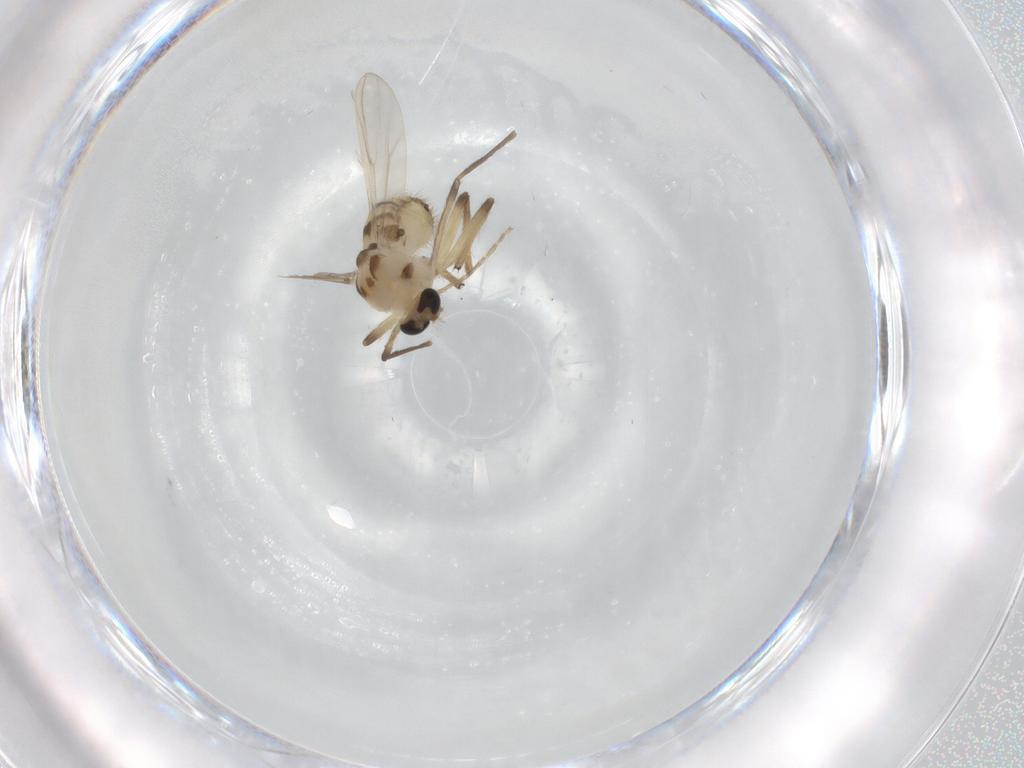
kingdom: Animalia
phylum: Arthropoda
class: Insecta
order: Diptera
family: Chironomidae
